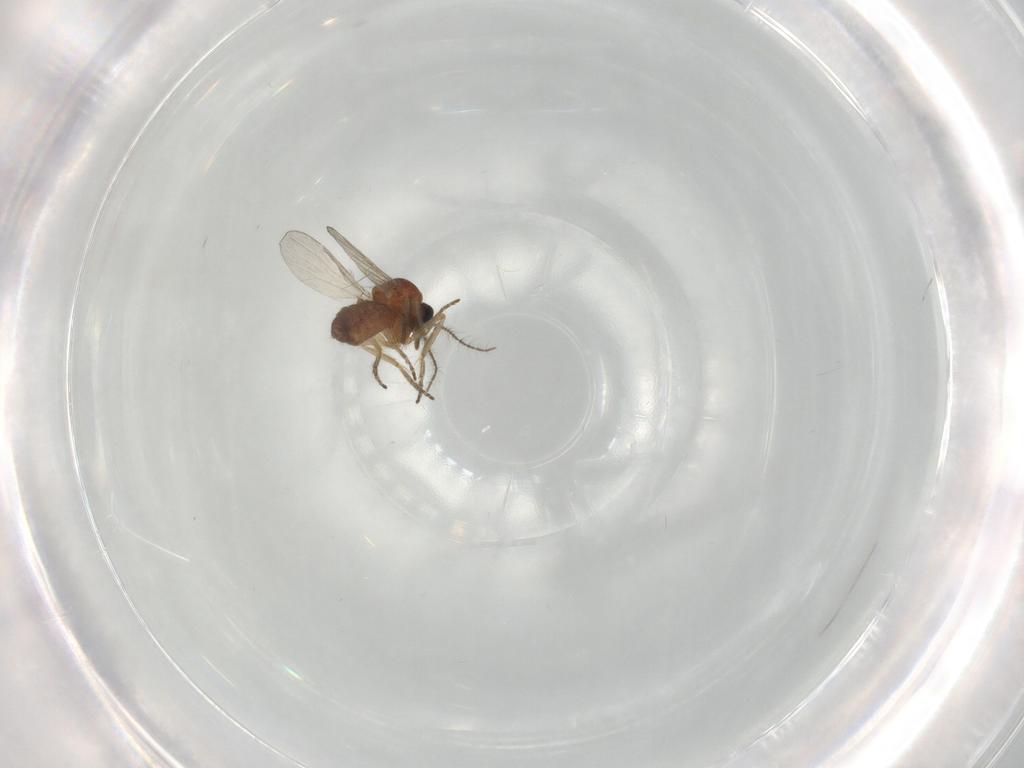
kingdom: Animalia
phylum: Arthropoda
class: Insecta
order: Diptera
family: Ceratopogonidae
